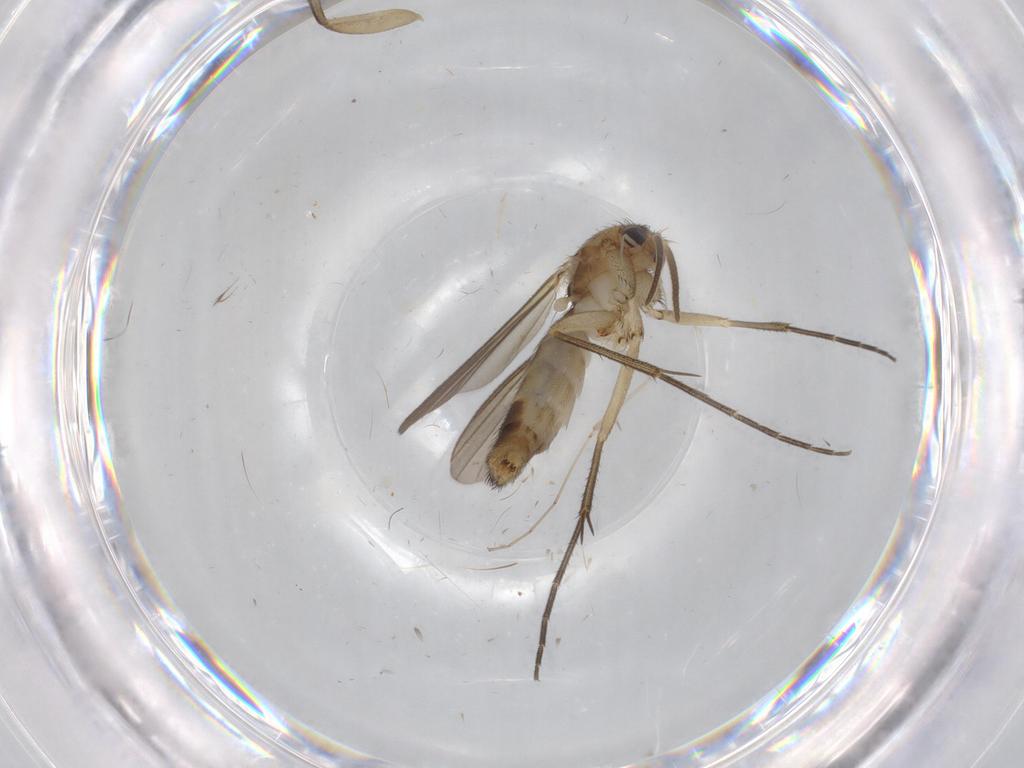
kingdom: Animalia
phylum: Arthropoda
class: Insecta
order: Diptera
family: Cecidomyiidae
